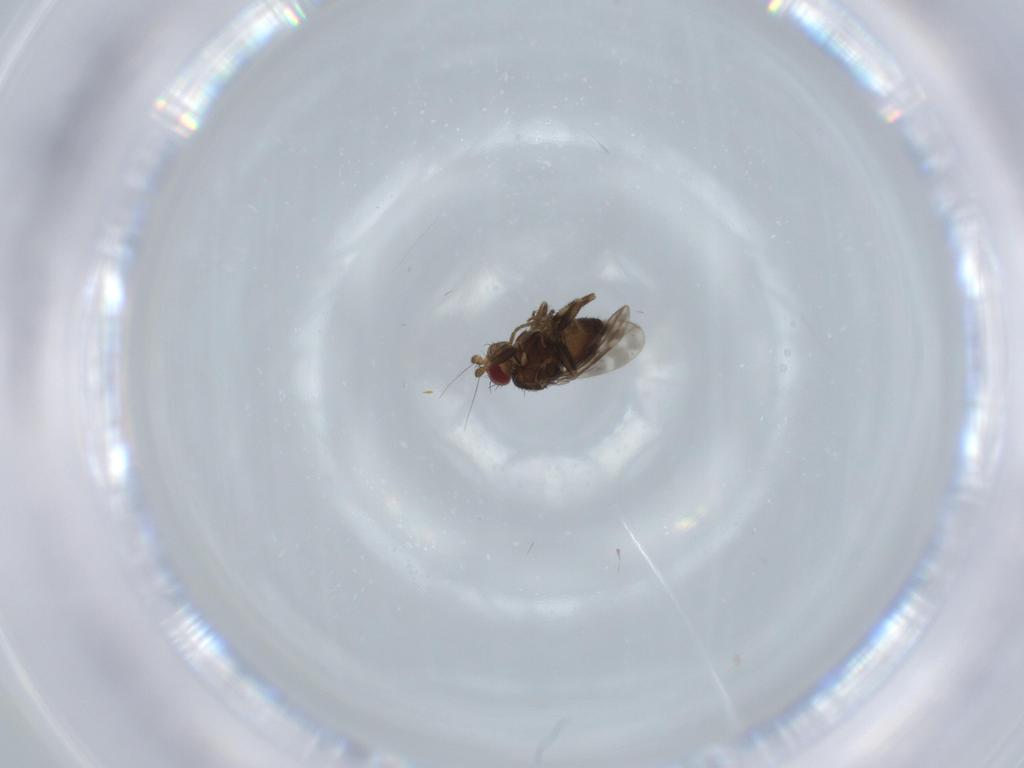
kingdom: Animalia
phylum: Arthropoda
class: Insecta
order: Diptera
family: Sphaeroceridae
